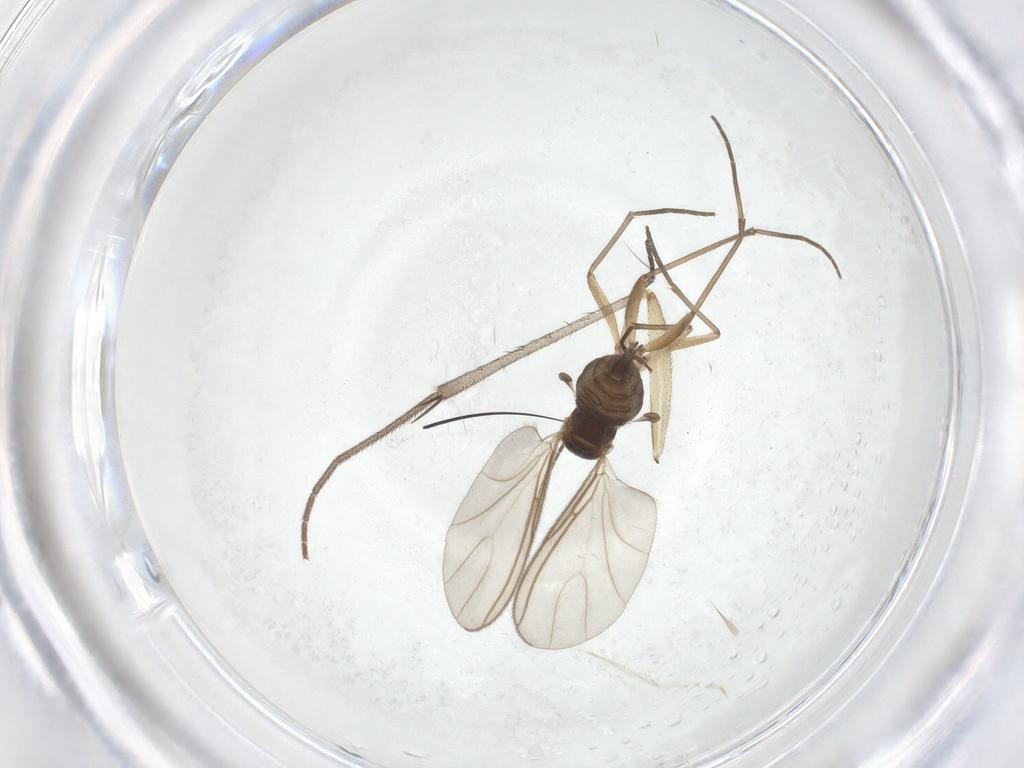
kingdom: Animalia
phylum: Arthropoda
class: Insecta
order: Diptera
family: Sciaridae
